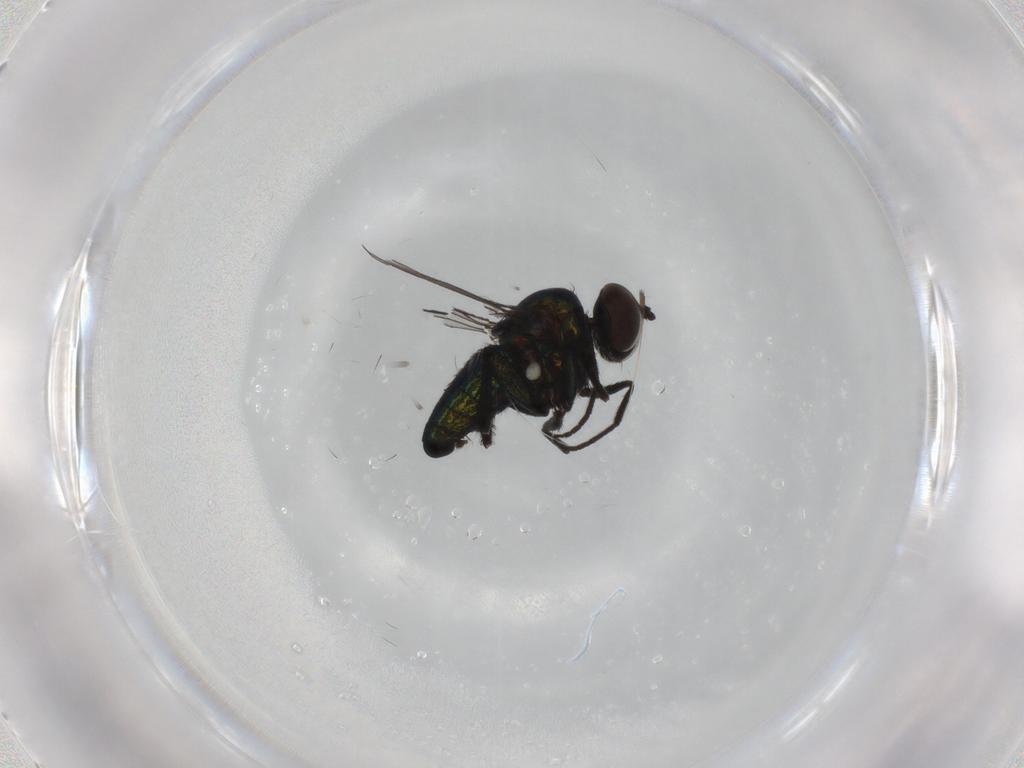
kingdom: Animalia
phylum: Arthropoda
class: Insecta
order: Diptera
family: Dolichopodidae
